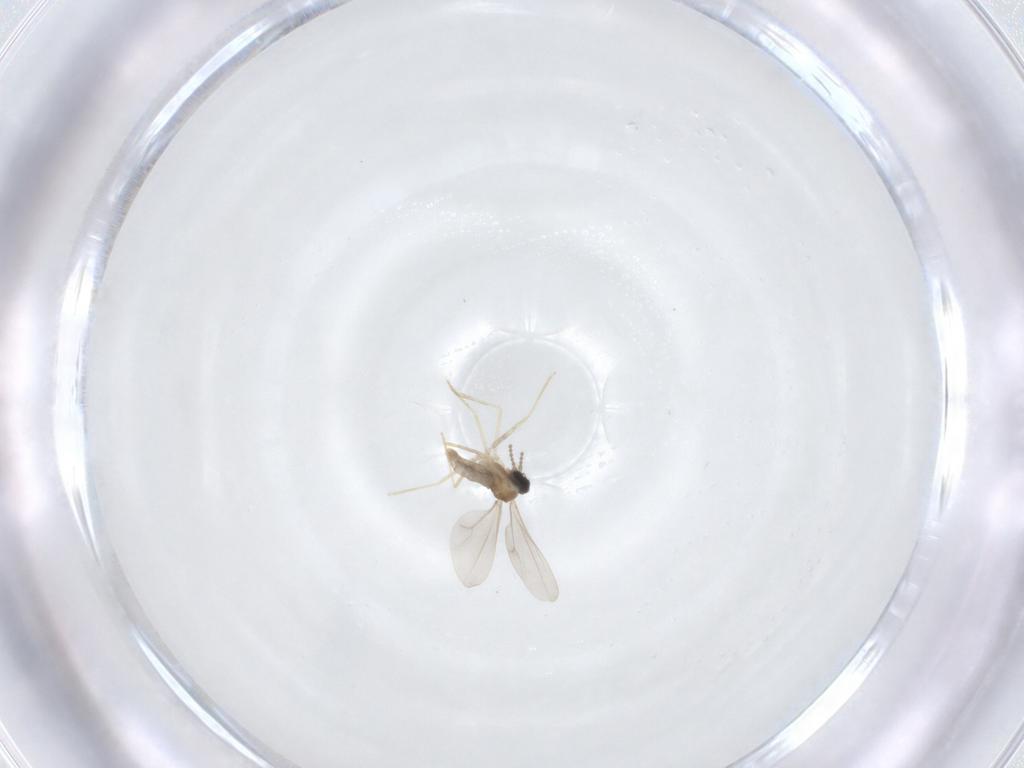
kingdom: Animalia
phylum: Arthropoda
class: Insecta
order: Diptera
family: Cecidomyiidae
